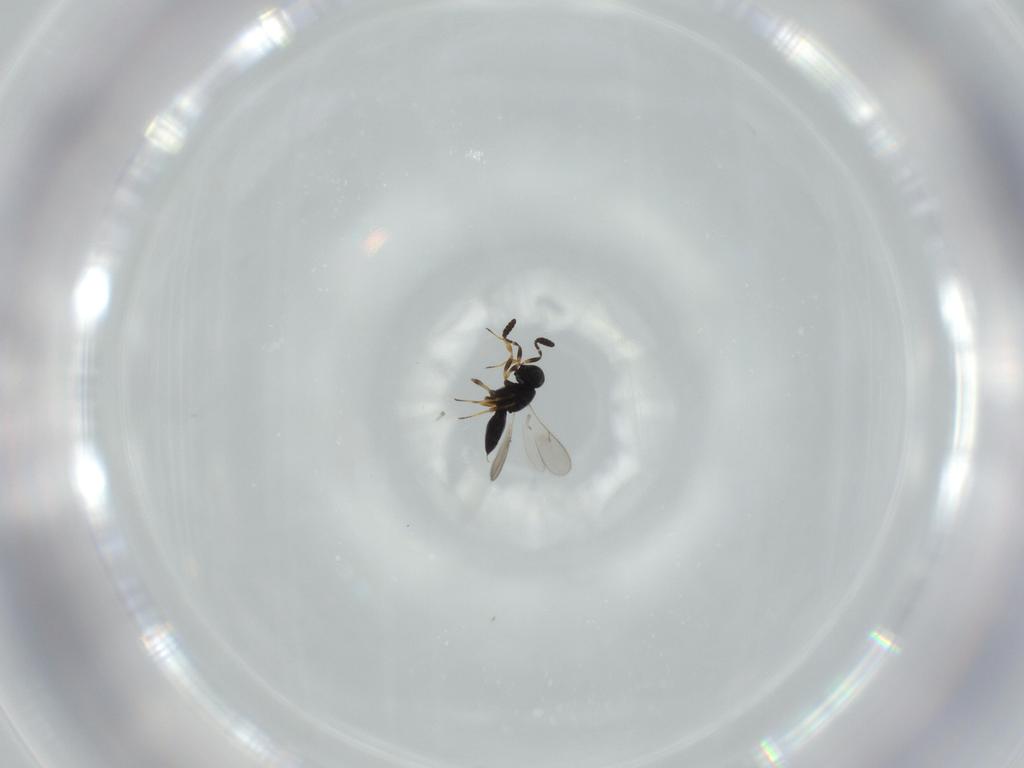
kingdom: Animalia
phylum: Arthropoda
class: Insecta
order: Hymenoptera
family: Scelionidae
